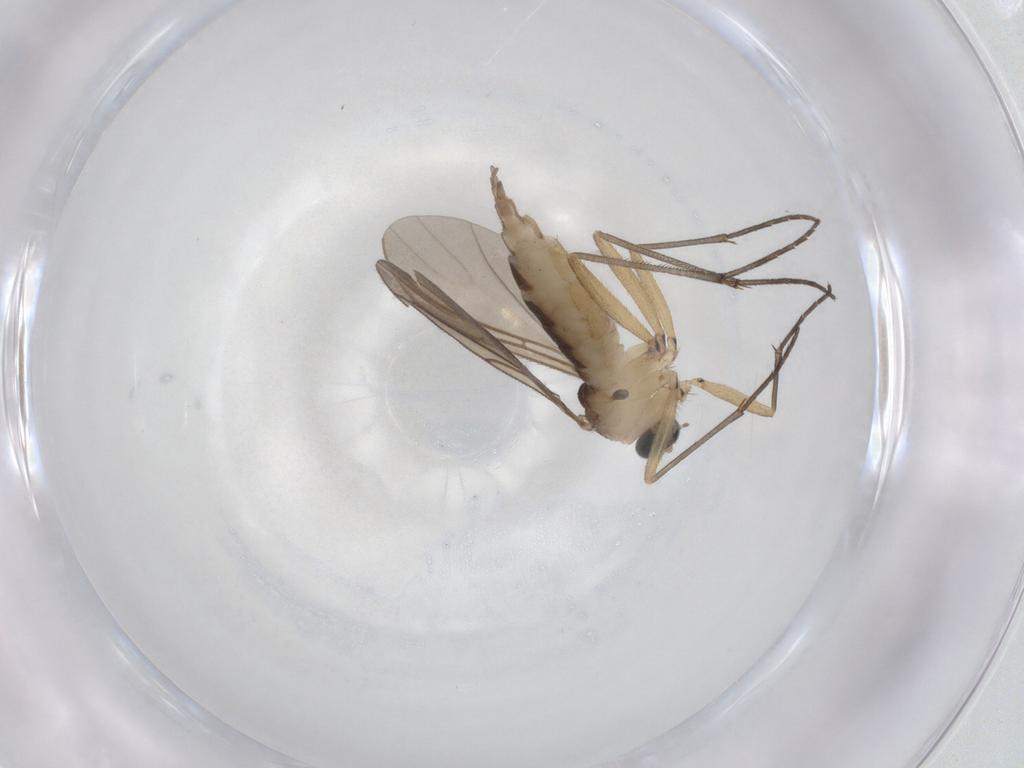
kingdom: Animalia
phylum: Arthropoda
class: Insecta
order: Diptera
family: Sciaridae
